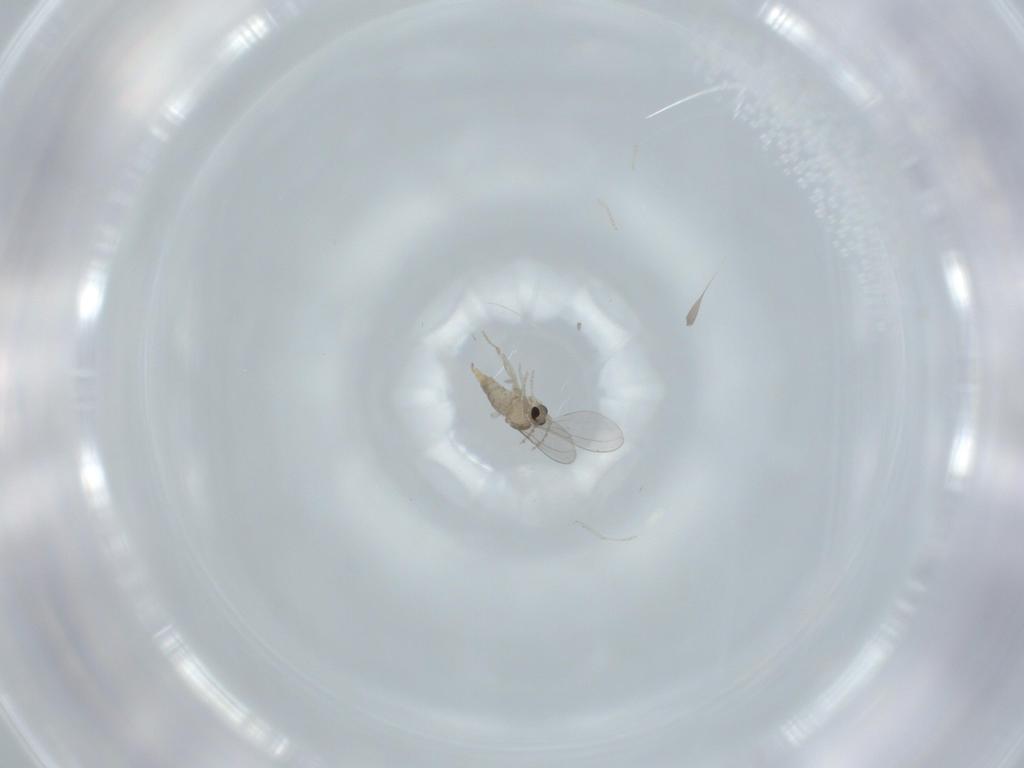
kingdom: Animalia
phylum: Arthropoda
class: Insecta
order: Diptera
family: Cecidomyiidae
